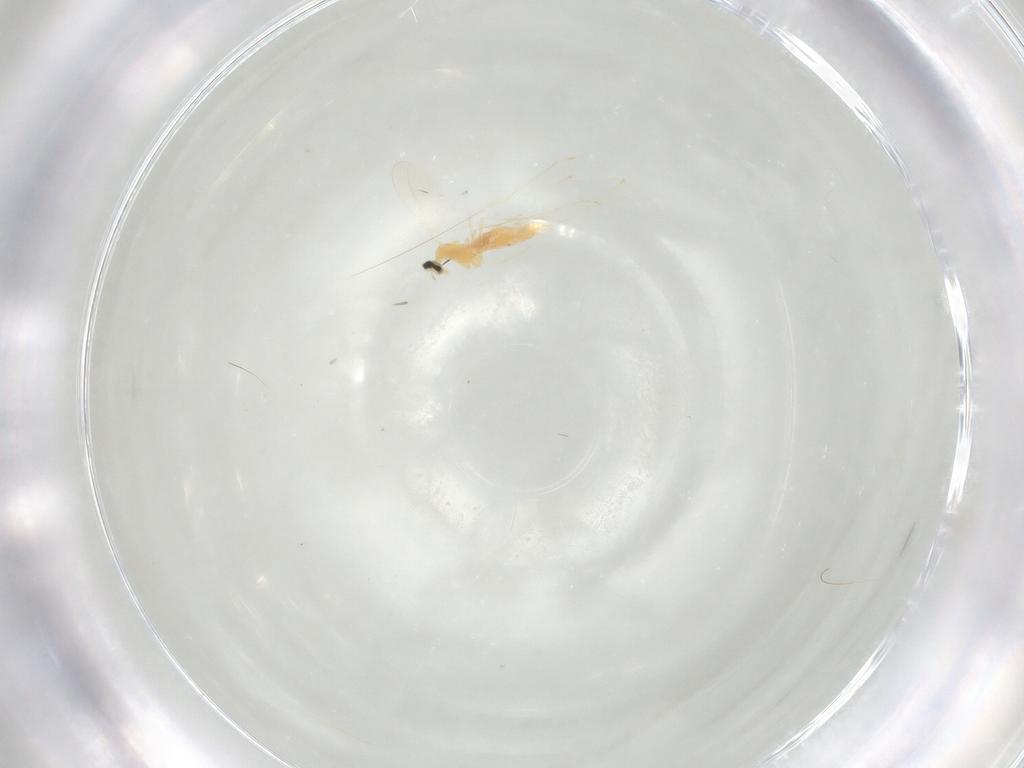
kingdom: Animalia
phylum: Arthropoda
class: Insecta
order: Diptera
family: Cecidomyiidae
